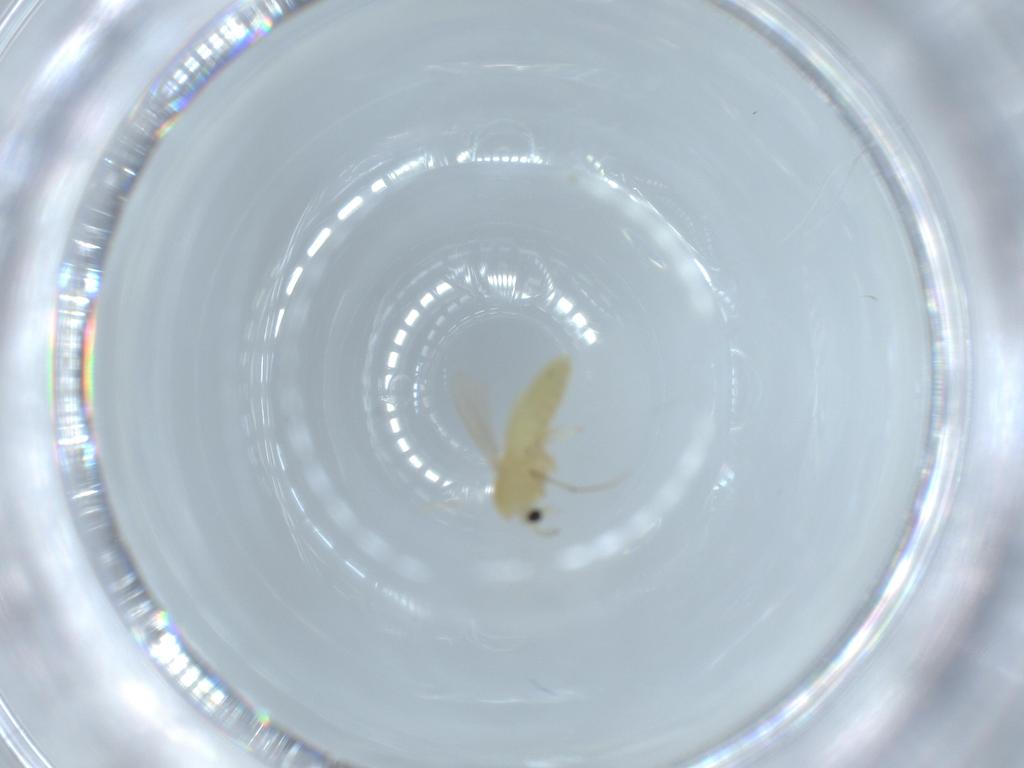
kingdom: Animalia
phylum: Arthropoda
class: Insecta
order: Diptera
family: Chironomidae
